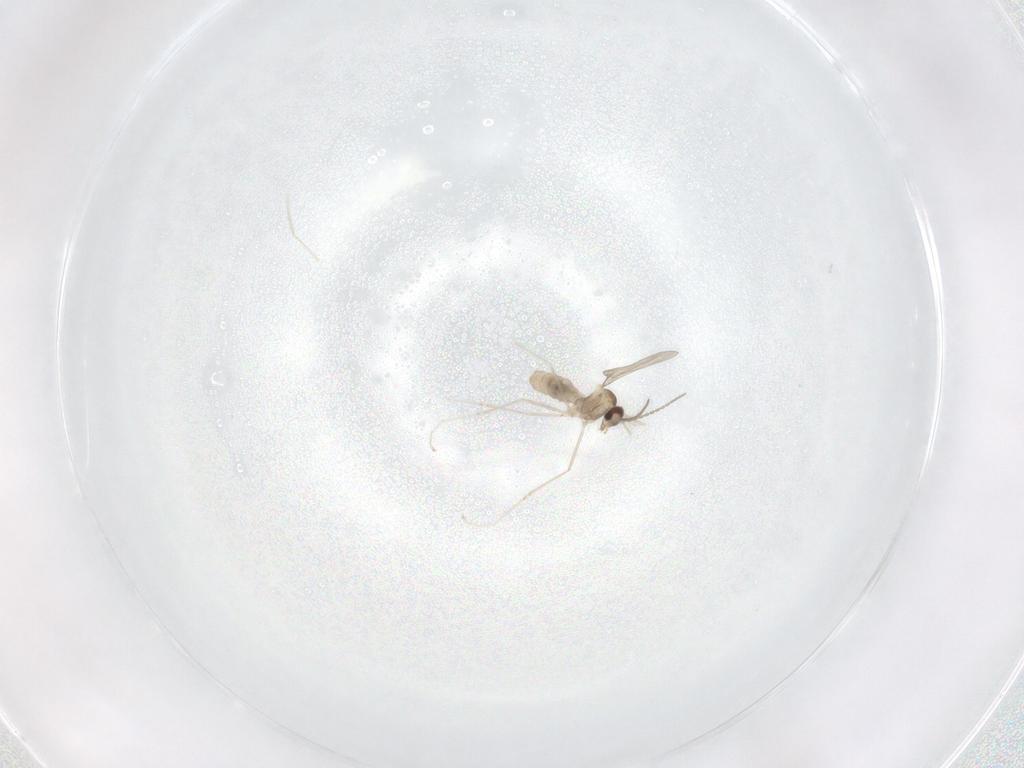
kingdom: Animalia
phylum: Arthropoda
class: Insecta
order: Diptera
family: Cecidomyiidae
